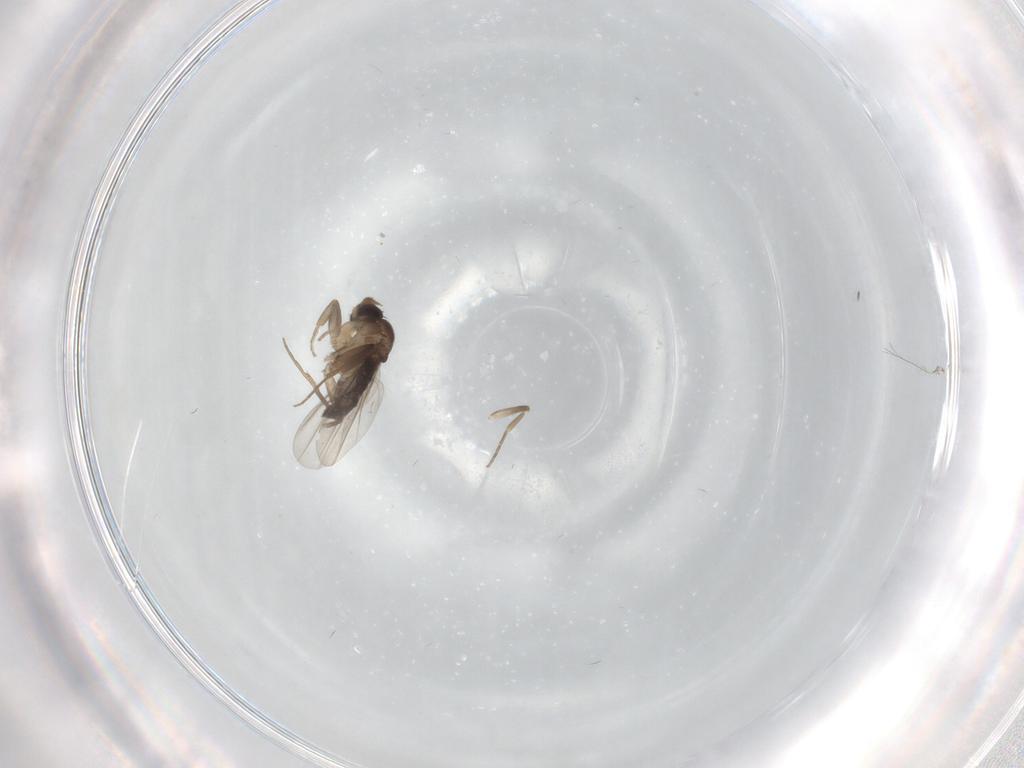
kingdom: Animalia
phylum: Arthropoda
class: Insecta
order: Diptera
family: Phoridae
